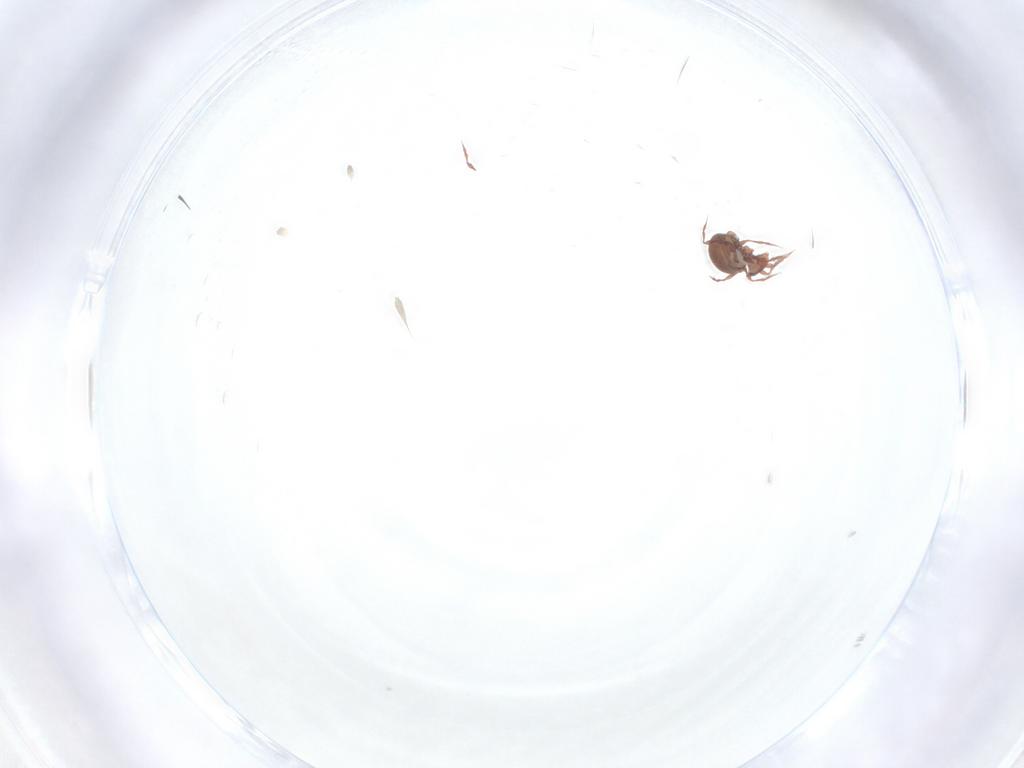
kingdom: Animalia
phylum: Arthropoda
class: Arachnida
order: Sarcoptiformes
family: Oppiidae
